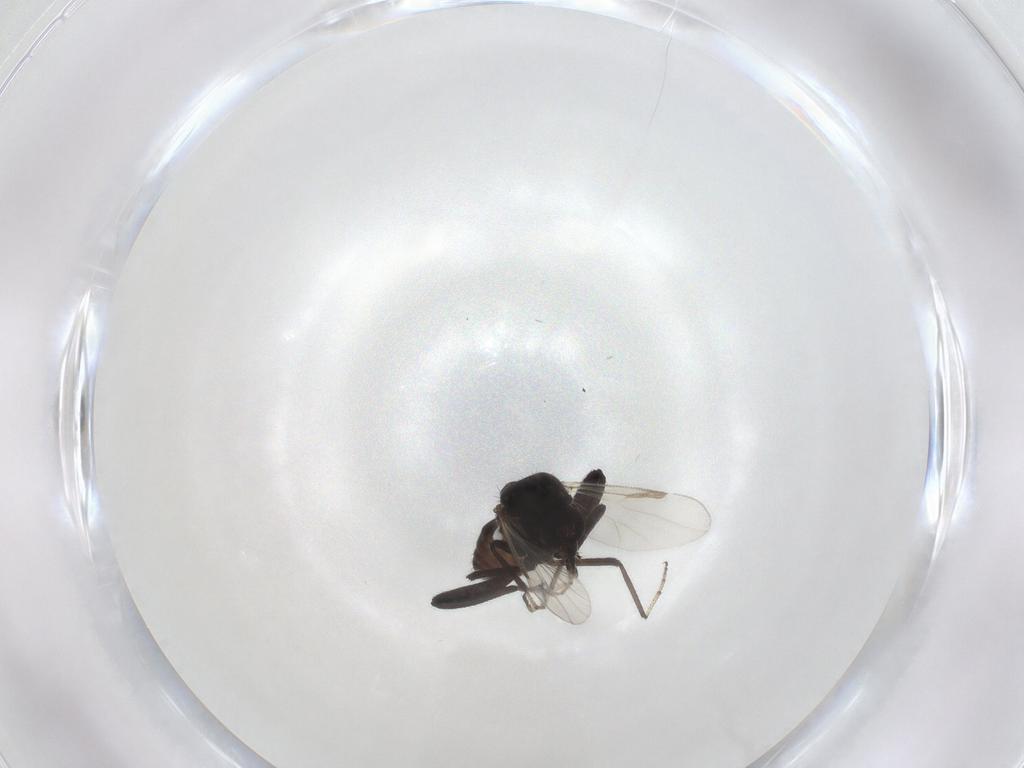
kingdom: Animalia
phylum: Arthropoda
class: Insecta
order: Diptera
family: Ceratopogonidae
